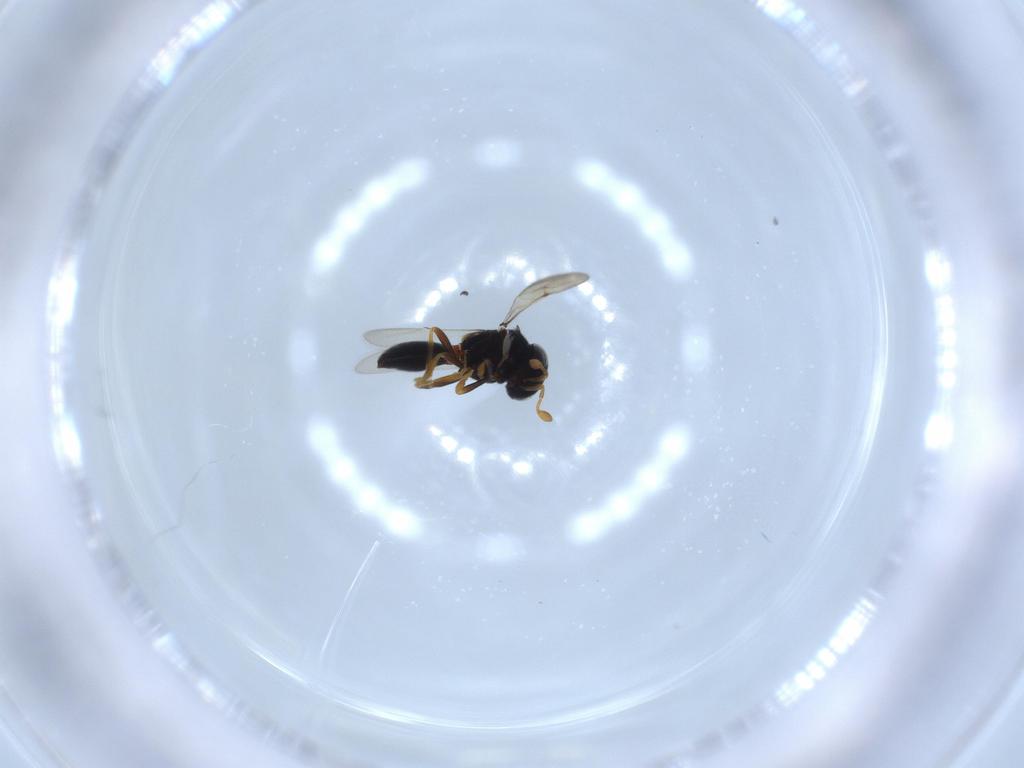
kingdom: Animalia
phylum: Arthropoda
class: Insecta
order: Hymenoptera
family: Scelionidae
